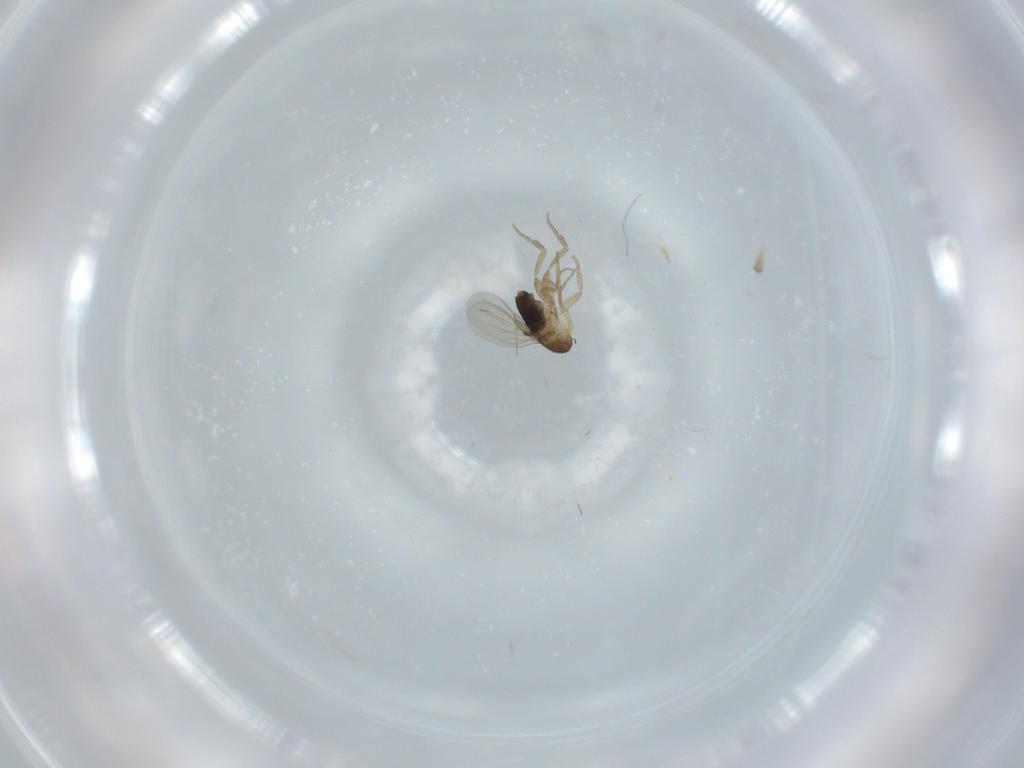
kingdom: Animalia
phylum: Arthropoda
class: Insecta
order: Diptera
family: Phoridae
